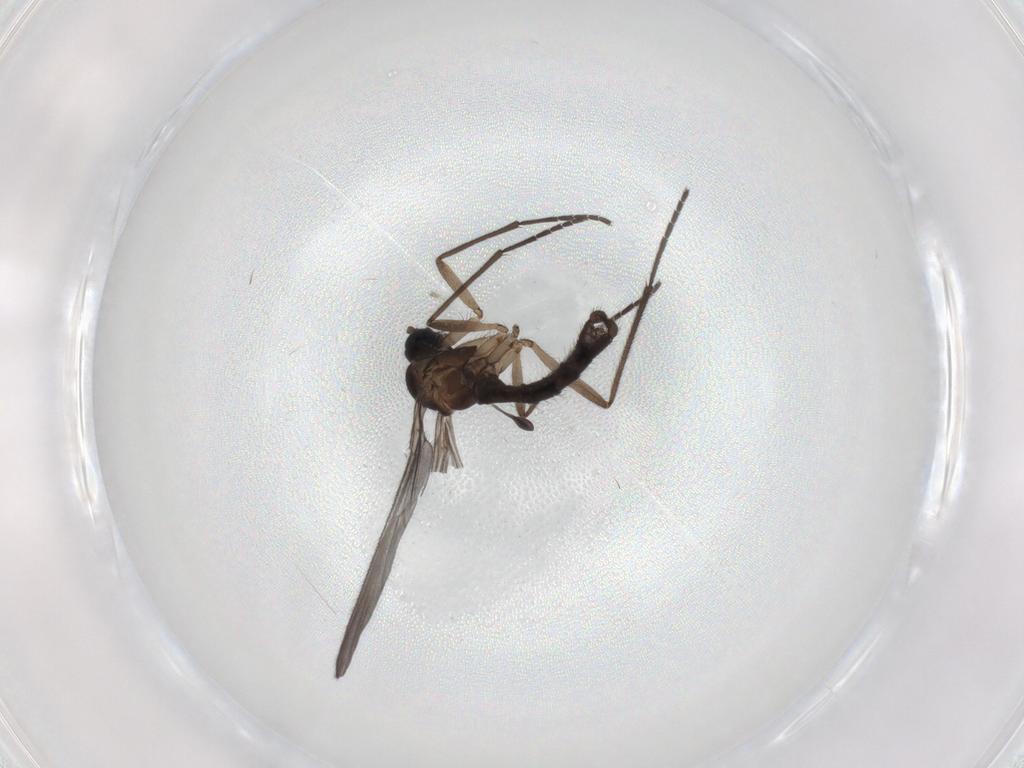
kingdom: Animalia
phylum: Arthropoda
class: Insecta
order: Diptera
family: Sciaridae
